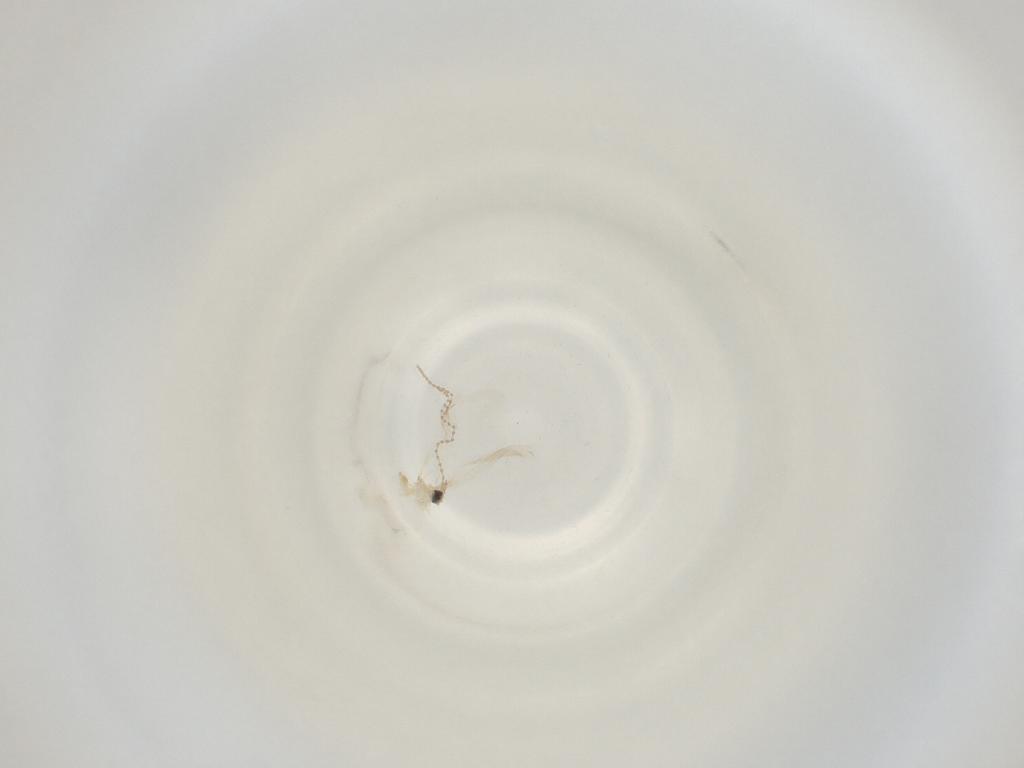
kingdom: Animalia
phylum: Arthropoda
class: Insecta
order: Diptera
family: Cecidomyiidae
